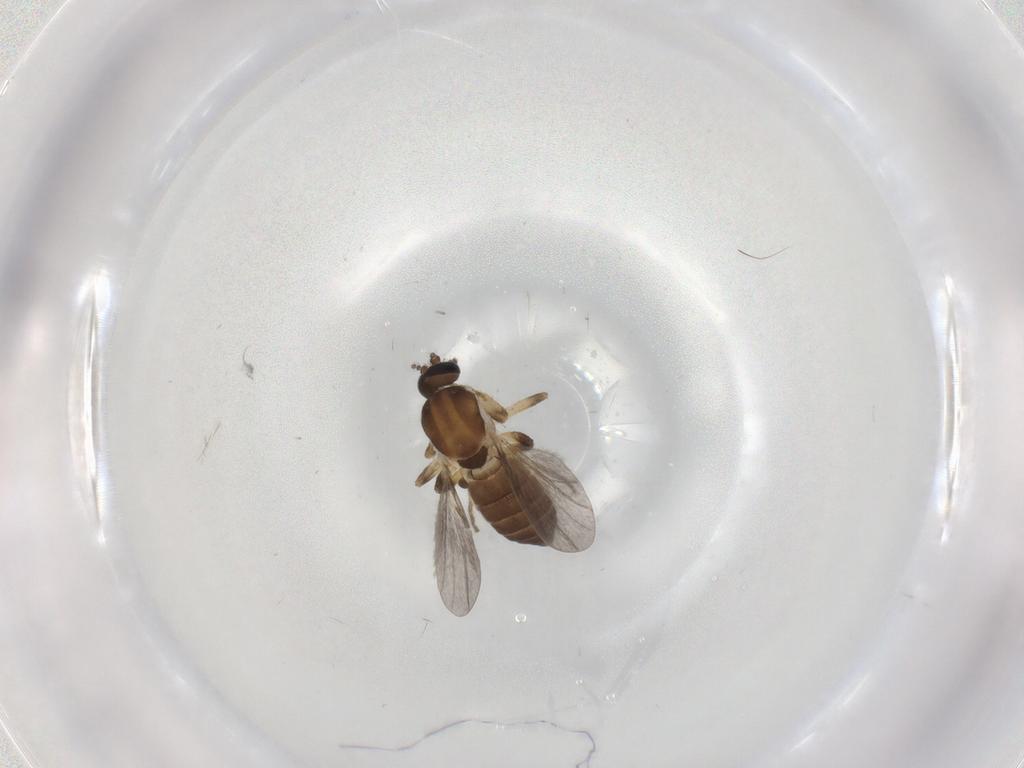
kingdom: Animalia
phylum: Arthropoda
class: Insecta
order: Diptera
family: Ceratopogonidae
